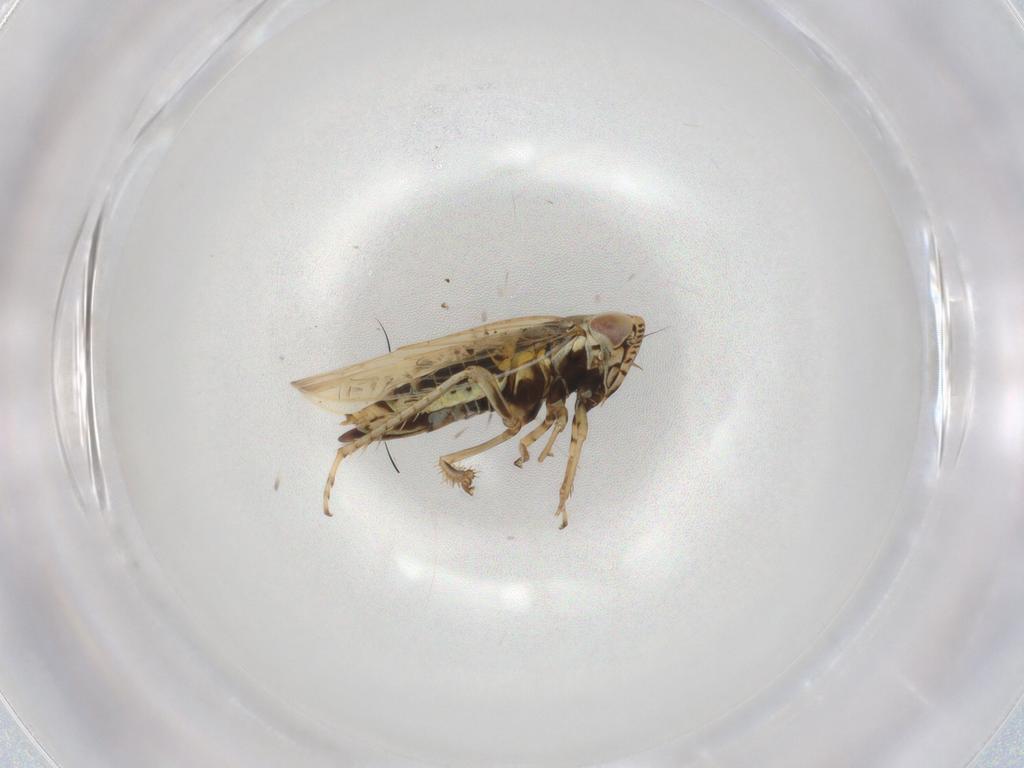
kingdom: Animalia
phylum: Arthropoda
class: Insecta
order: Hemiptera
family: Cicadellidae
